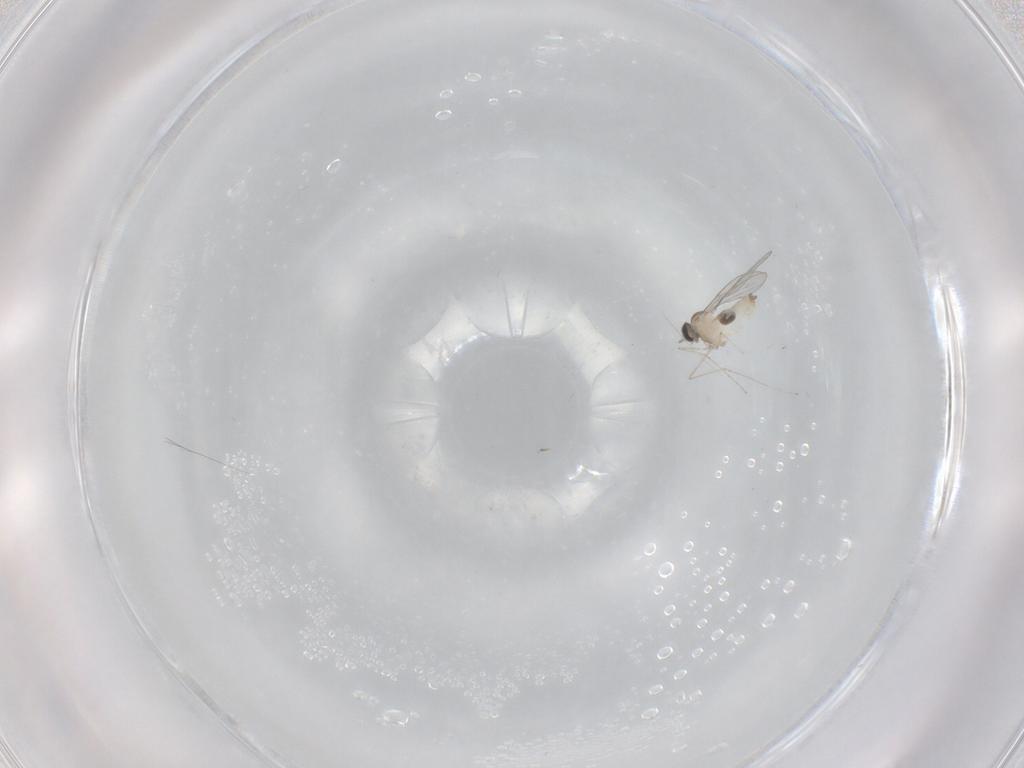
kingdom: Animalia
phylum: Arthropoda
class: Insecta
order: Diptera
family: Cecidomyiidae
